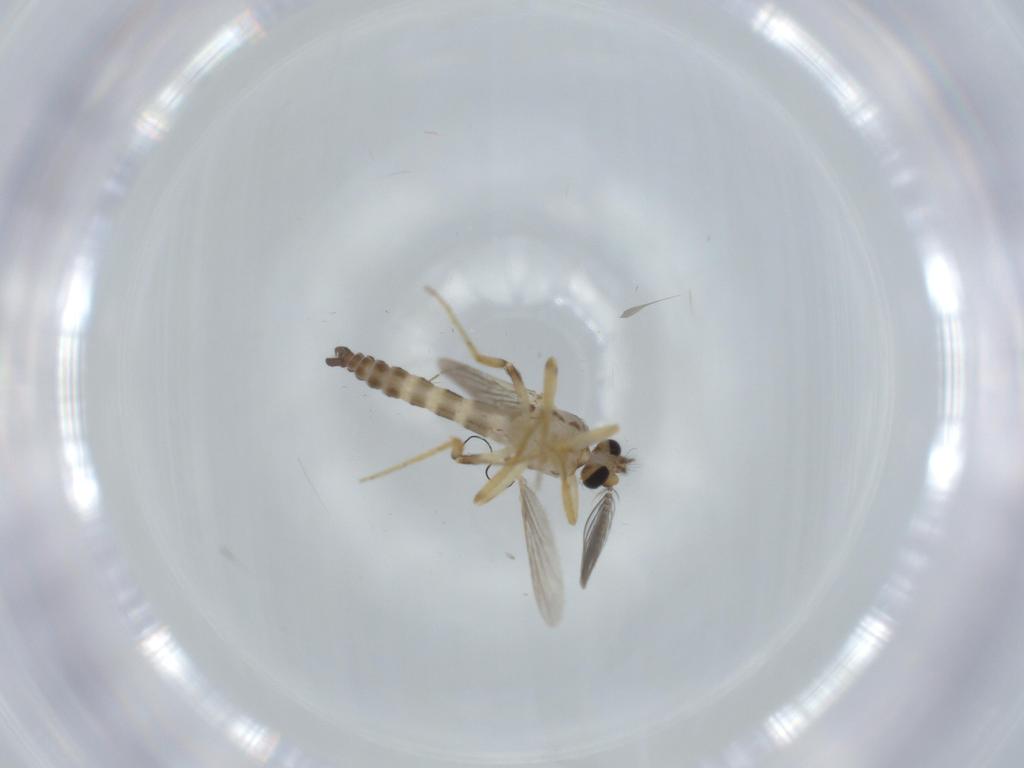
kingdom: Animalia
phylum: Arthropoda
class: Insecta
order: Diptera
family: Ceratopogonidae
